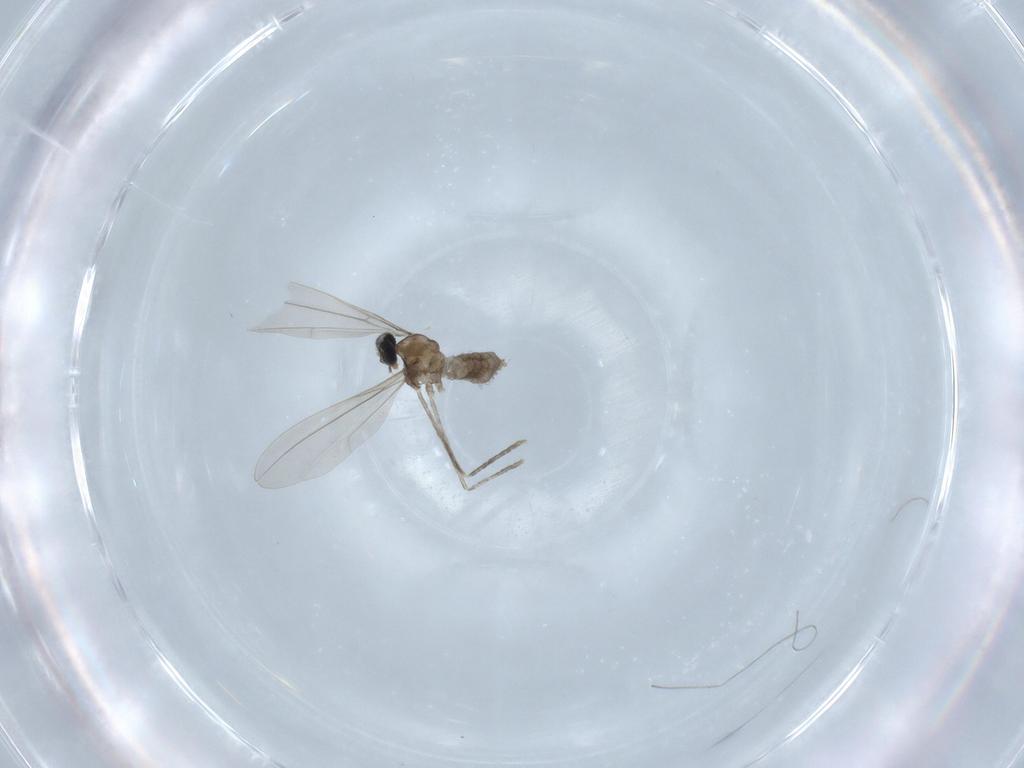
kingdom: Animalia
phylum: Arthropoda
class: Insecta
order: Diptera
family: Cecidomyiidae
